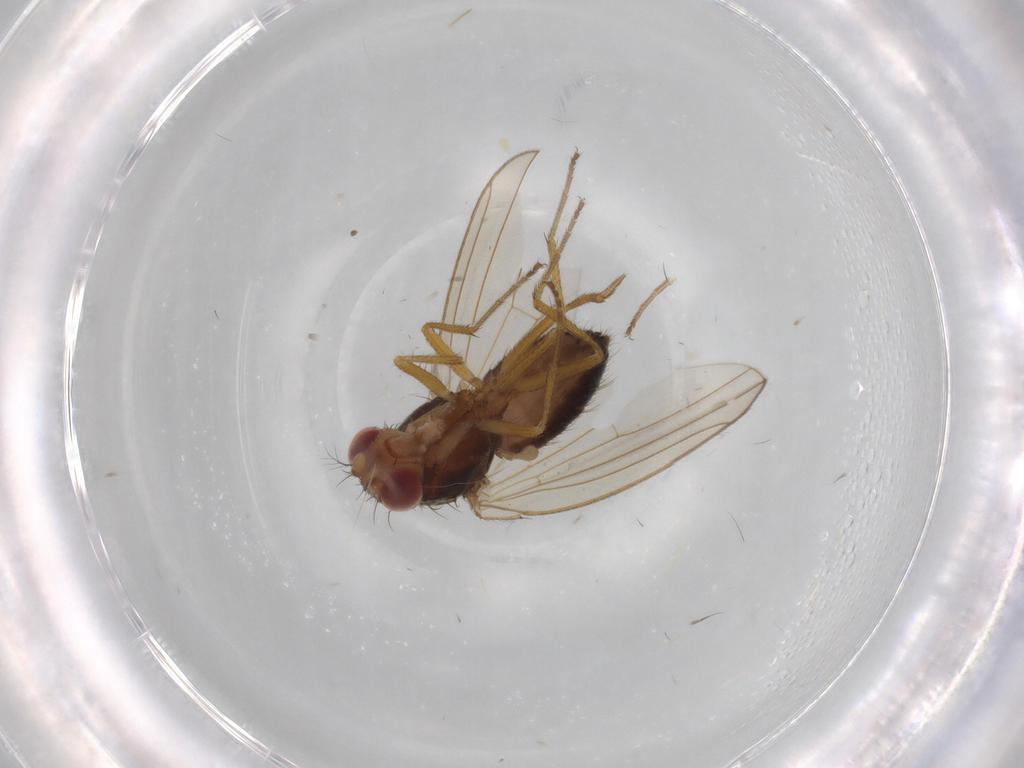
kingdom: Animalia
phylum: Arthropoda
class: Insecta
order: Diptera
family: Drosophilidae
